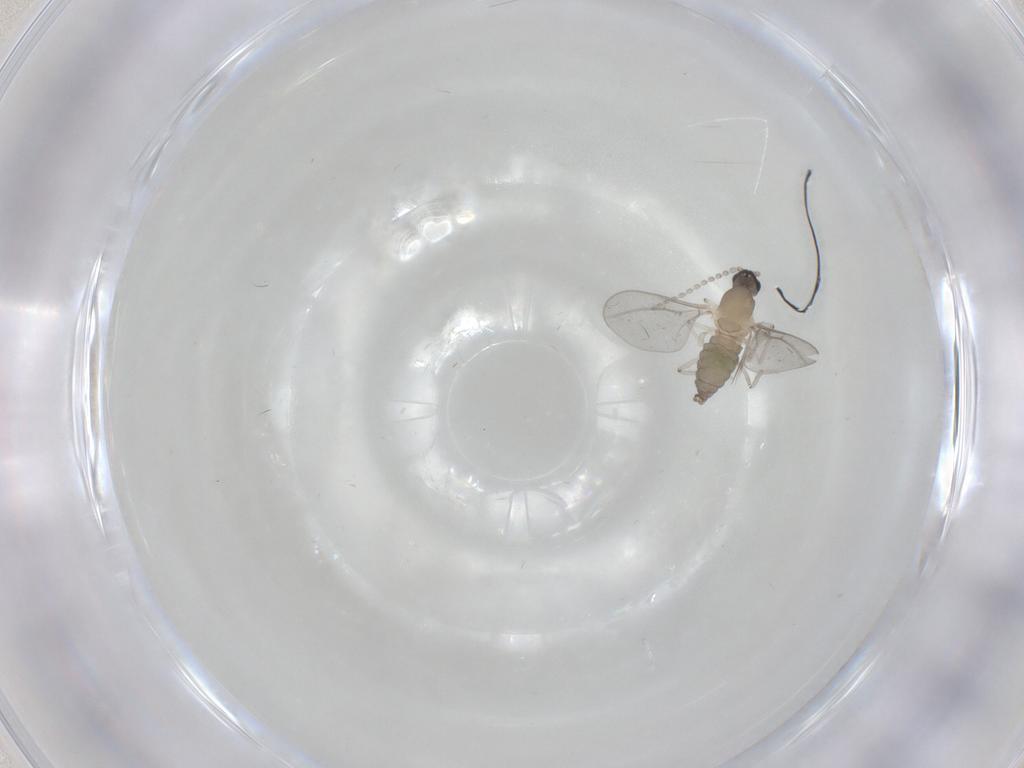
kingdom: Animalia
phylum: Arthropoda
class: Insecta
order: Diptera
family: Cecidomyiidae
